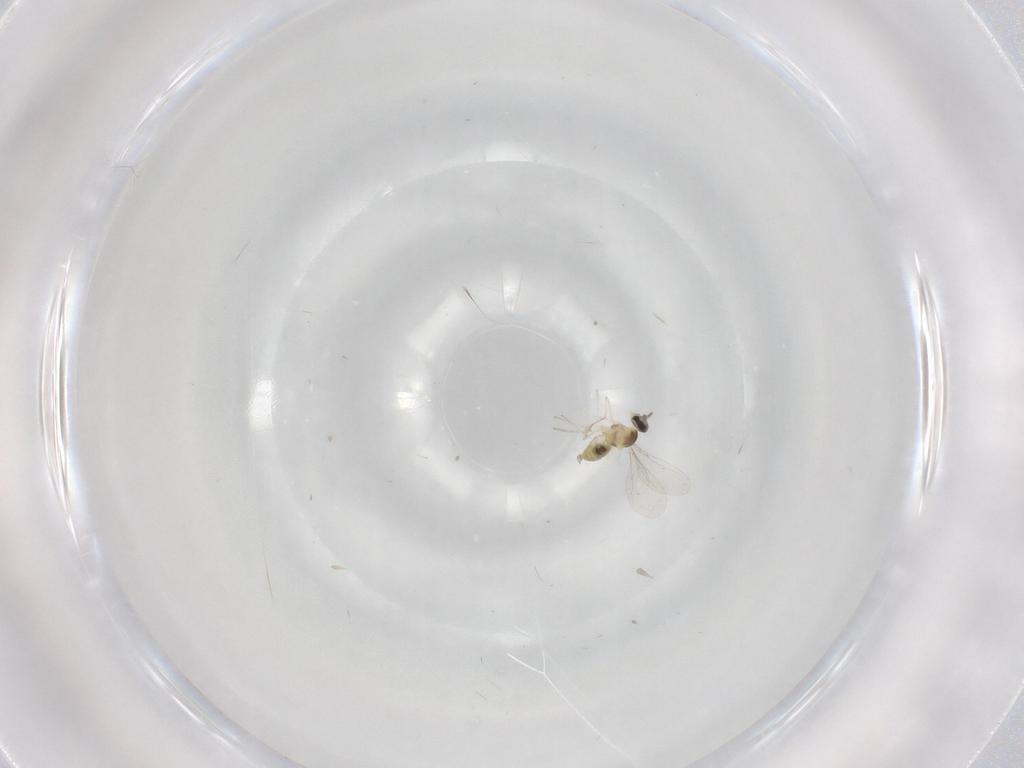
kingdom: Animalia
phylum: Arthropoda
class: Insecta
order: Diptera
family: Cecidomyiidae
